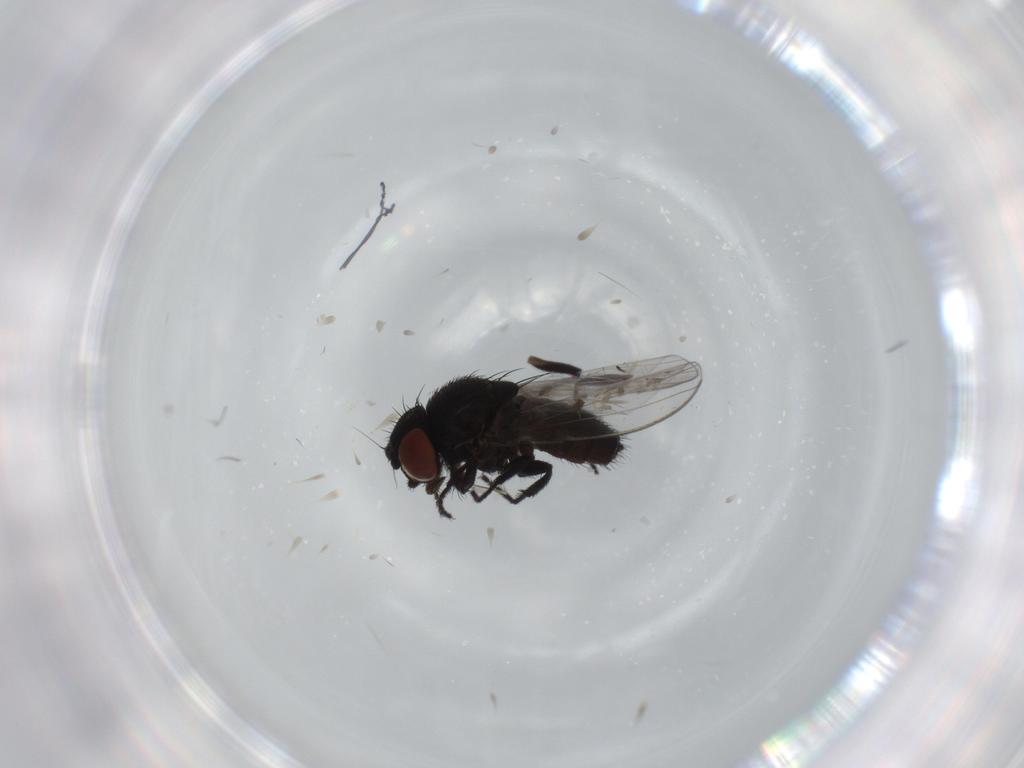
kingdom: Animalia
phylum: Arthropoda
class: Insecta
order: Diptera
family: Milichiidae
